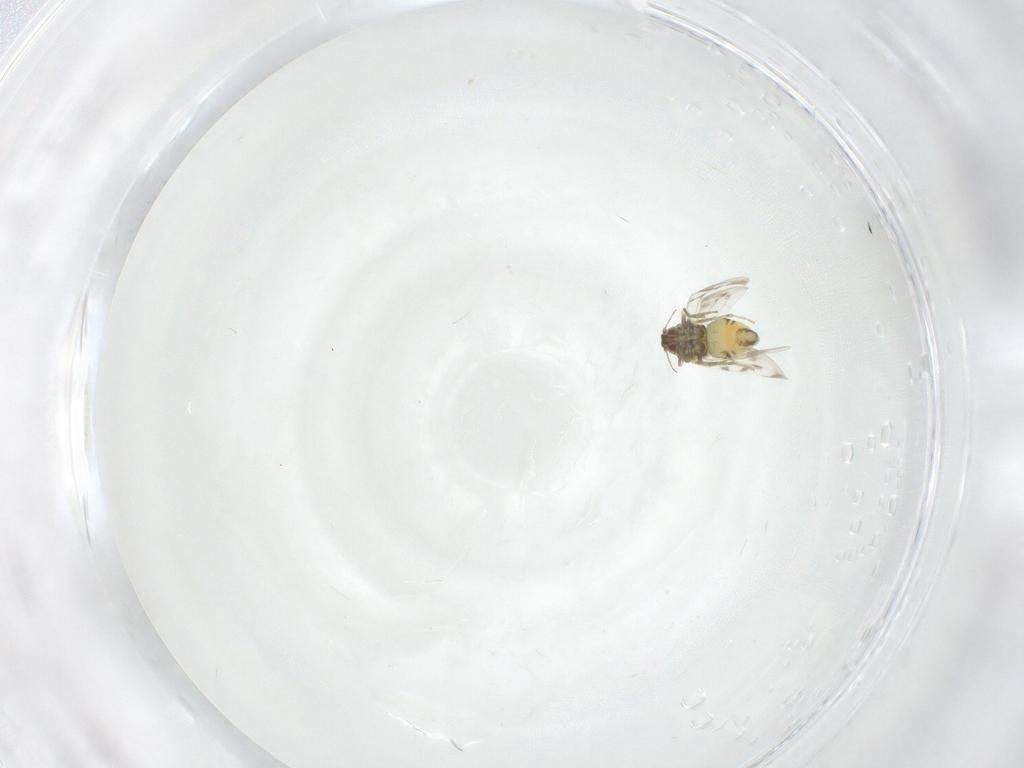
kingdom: Animalia
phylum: Arthropoda
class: Insecta
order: Hemiptera
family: Aleyrodidae
